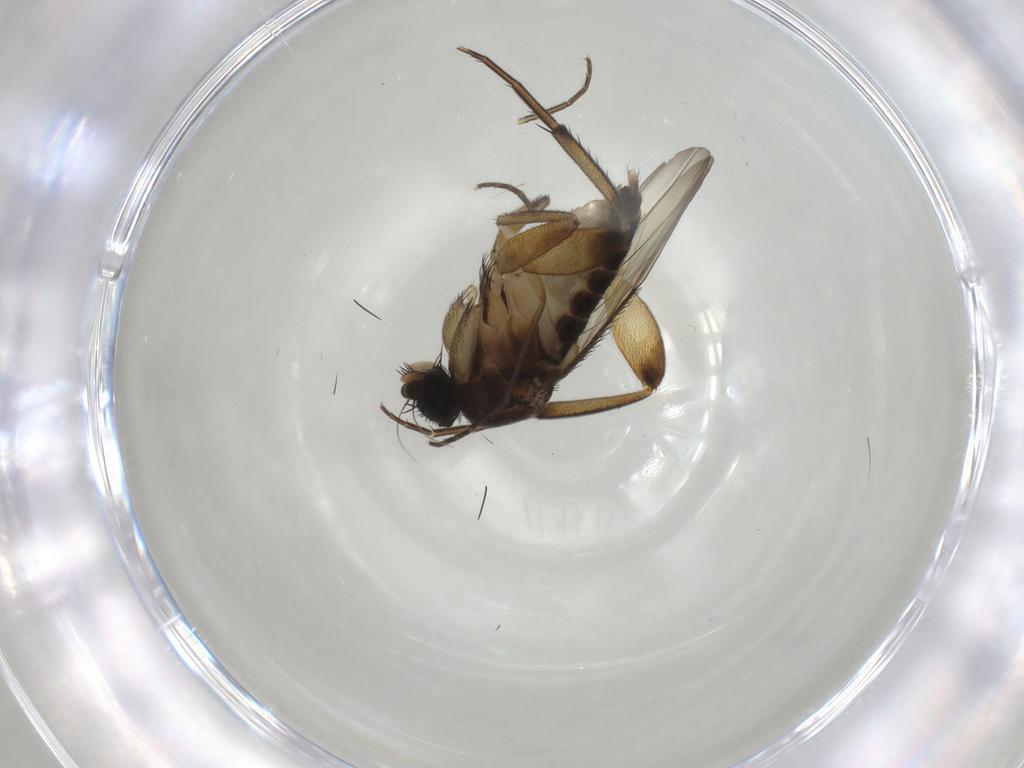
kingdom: Animalia
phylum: Arthropoda
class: Insecta
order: Diptera
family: Phoridae
